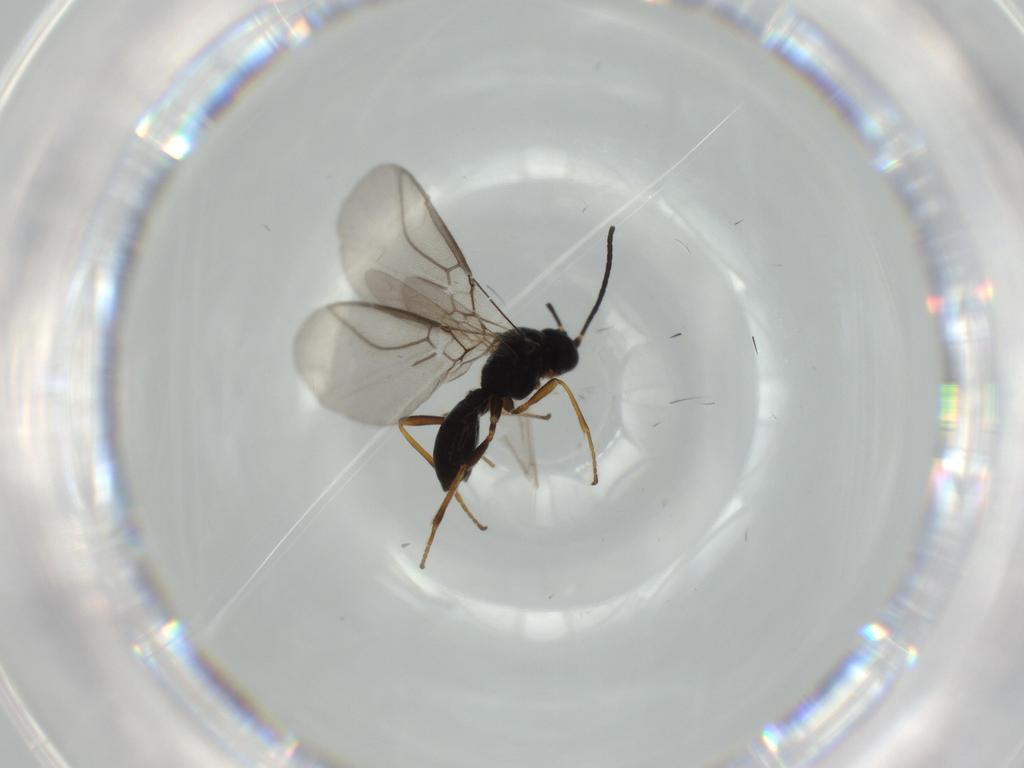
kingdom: Animalia
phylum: Arthropoda
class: Insecta
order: Hymenoptera
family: Braconidae
